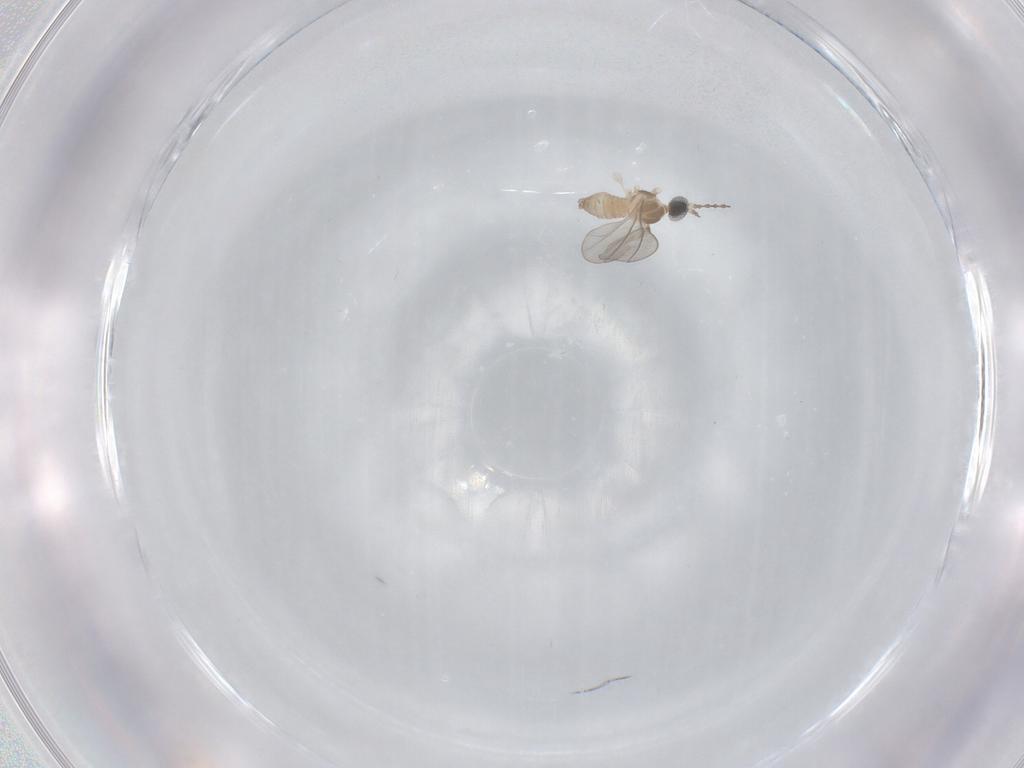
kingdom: Animalia
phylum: Arthropoda
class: Insecta
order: Diptera
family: Cecidomyiidae
